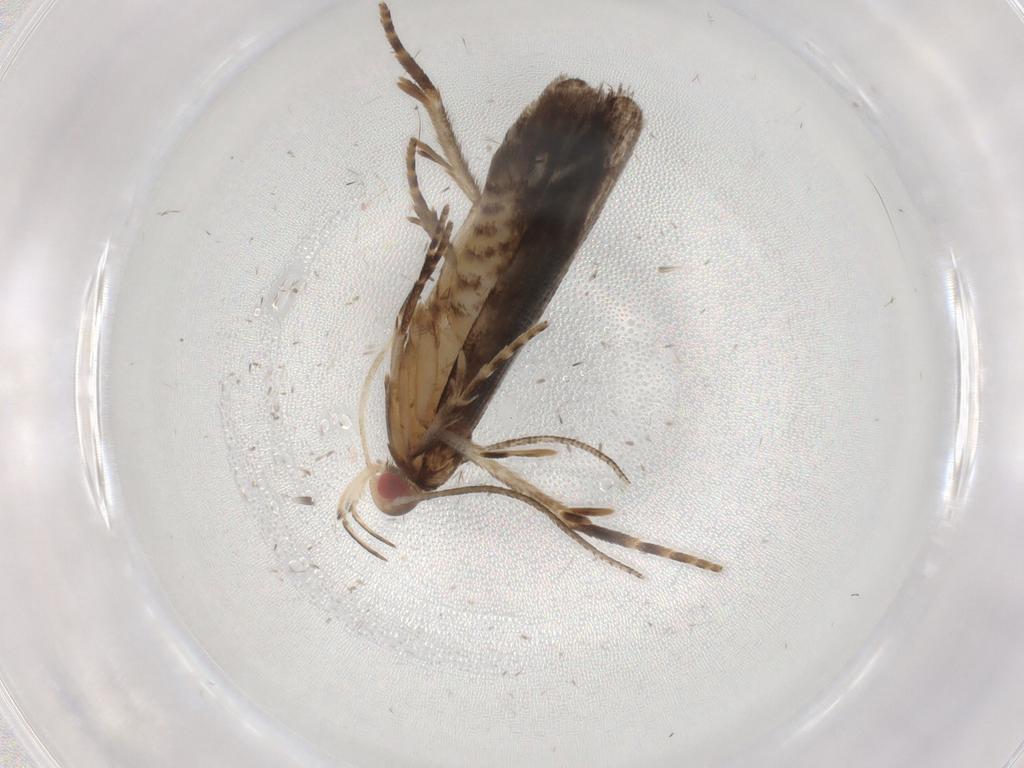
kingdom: Animalia
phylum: Arthropoda
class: Insecta
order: Lepidoptera
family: Gelechiidae
